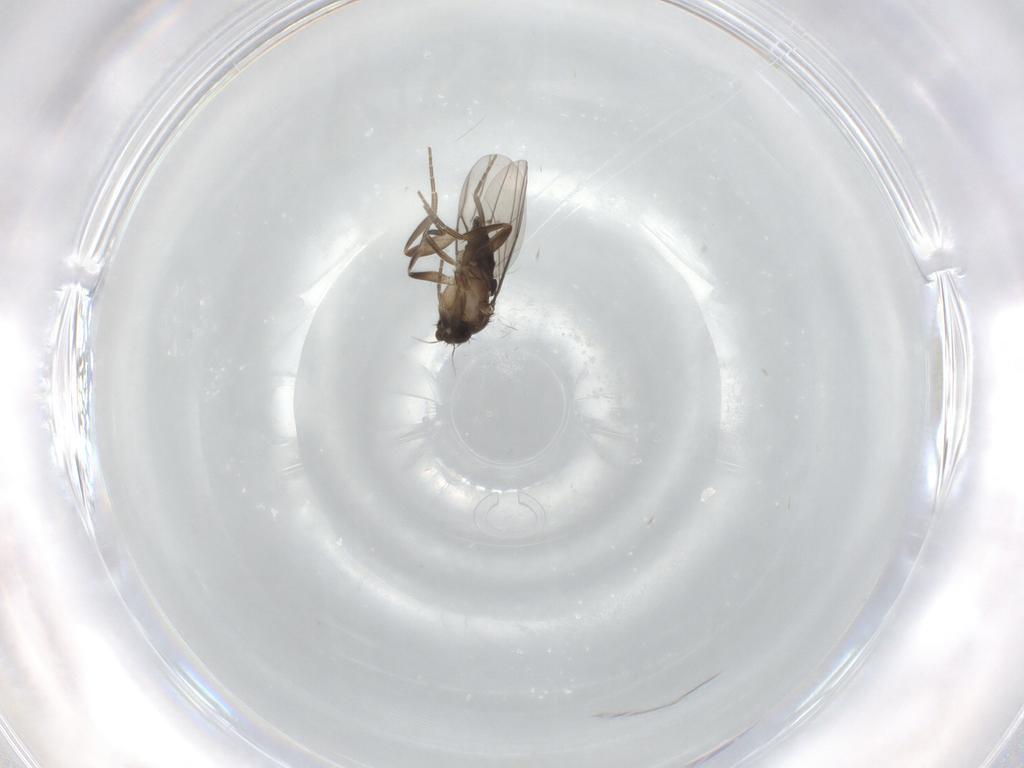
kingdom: Animalia
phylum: Arthropoda
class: Insecta
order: Diptera
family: Phoridae
